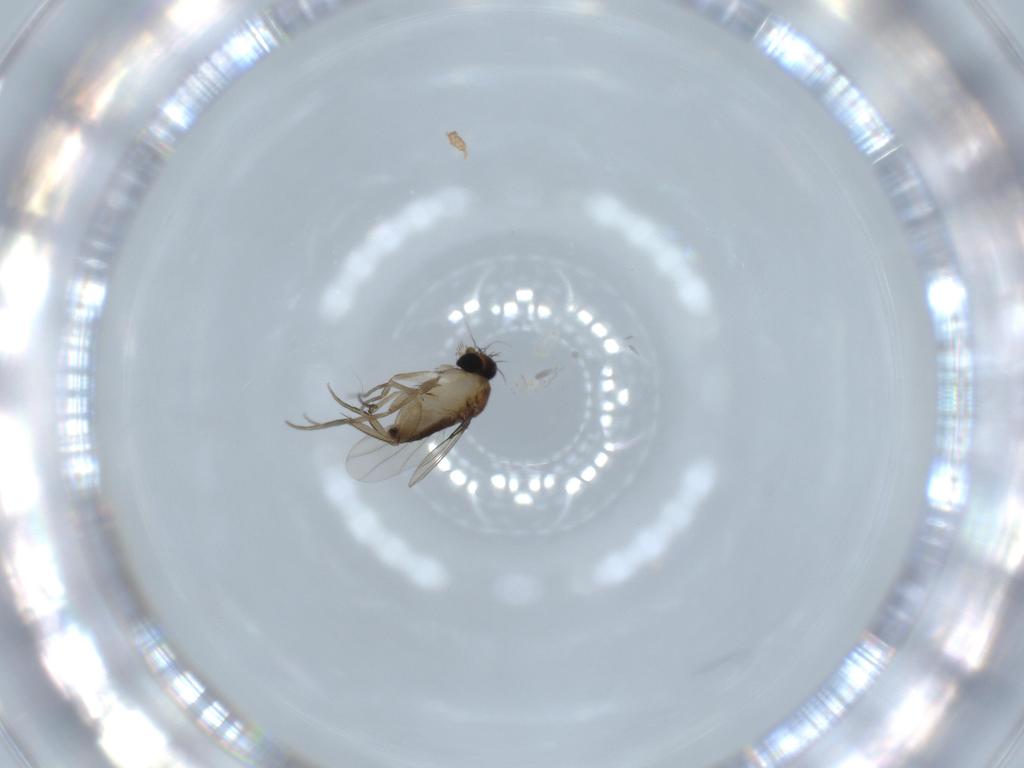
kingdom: Animalia
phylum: Arthropoda
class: Insecta
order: Diptera
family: Phoridae
